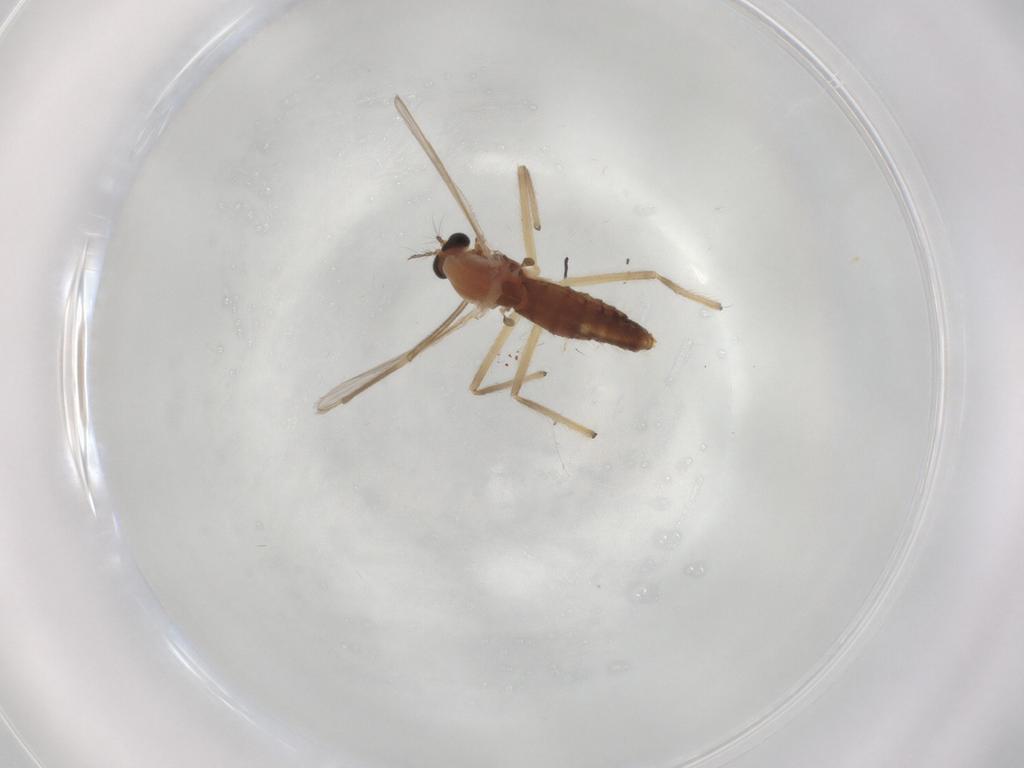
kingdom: Animalia
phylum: Arthropoda
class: Insecta
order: Diptera
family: Chironomidae
